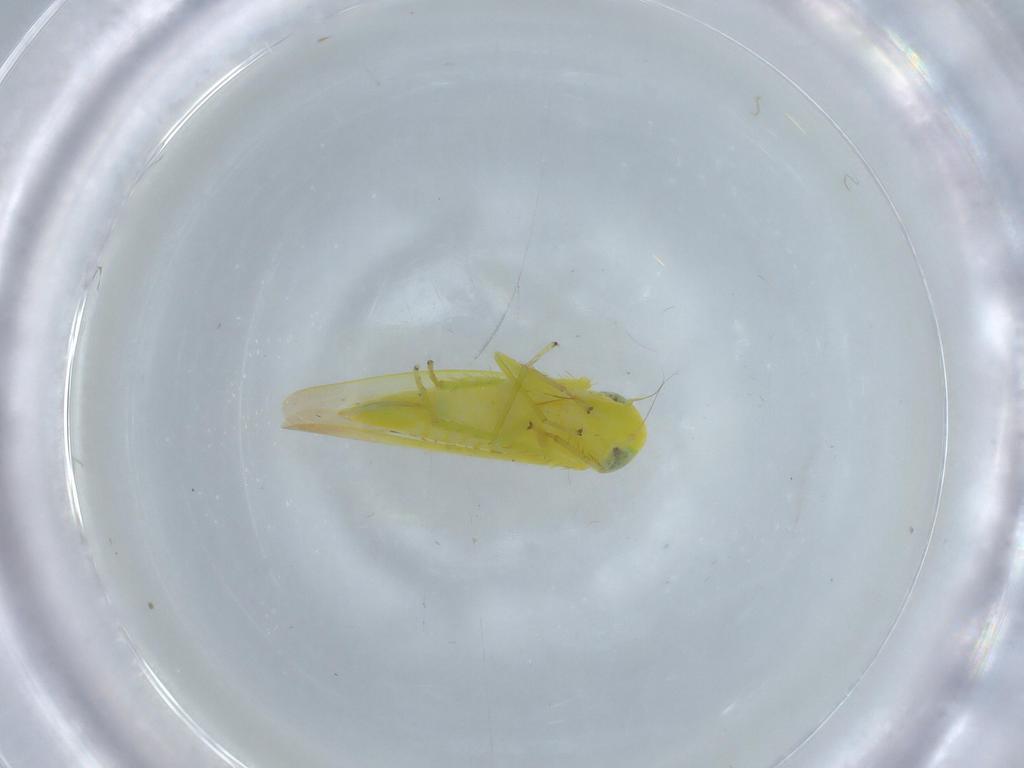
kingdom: Animalia
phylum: Arthropoda
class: Insecta
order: Hemiptera
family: Cicadellidae
